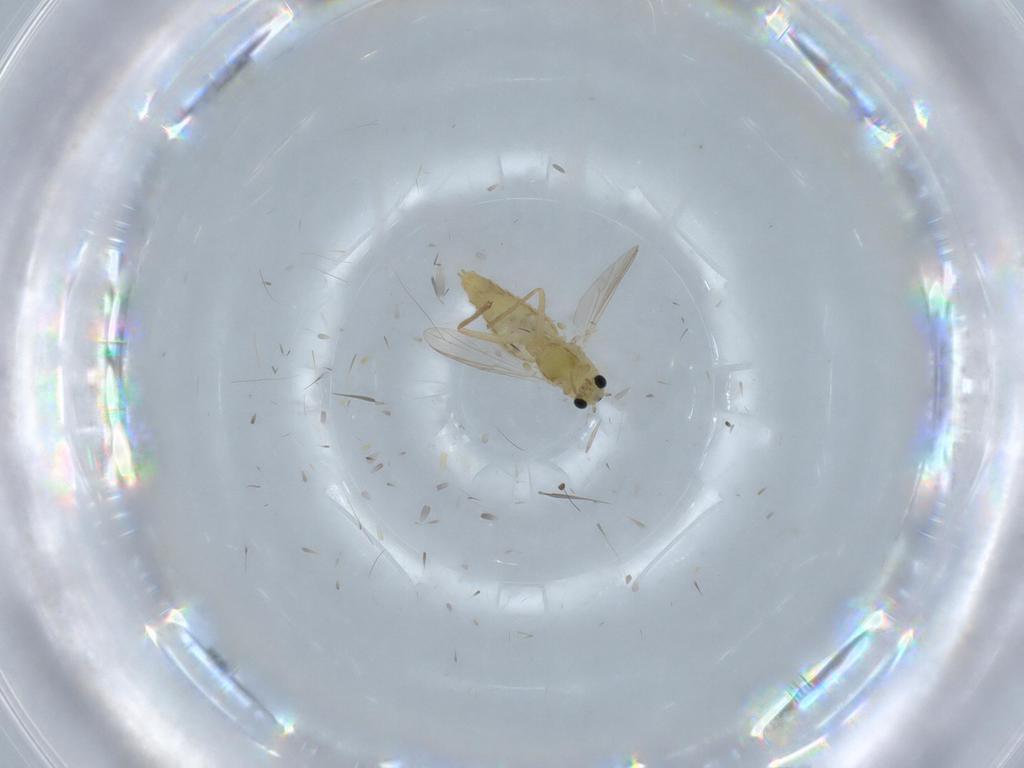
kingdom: Animalia
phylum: Arthropoda
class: Insecta
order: Diptera
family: Chironomidae
